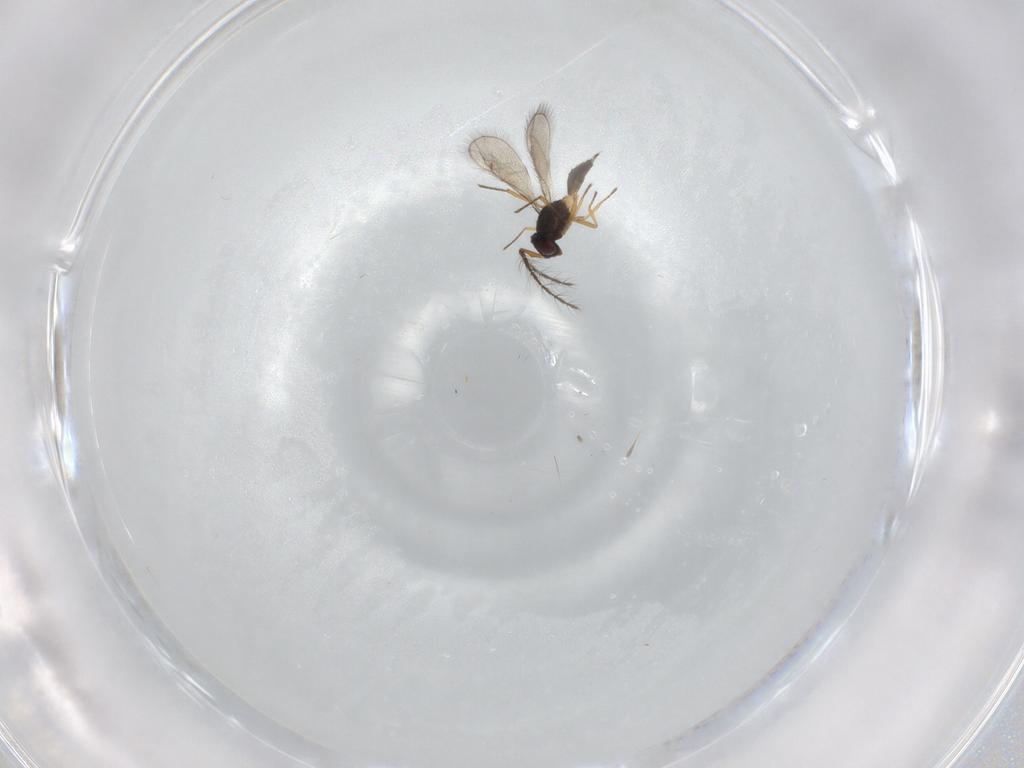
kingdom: Animalia
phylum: Arthropoda
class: Insecta
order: Hymenoptera
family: Eulophidae
